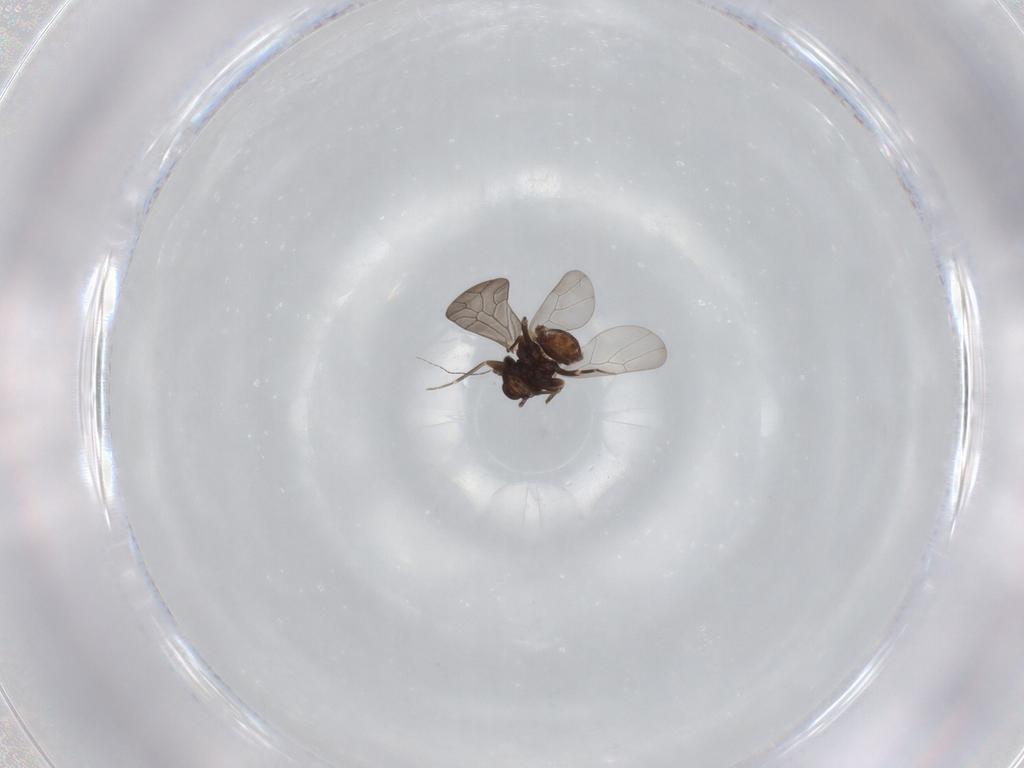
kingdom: Animalia
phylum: Arthropoda
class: Insecta
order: Psocodea
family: Lepidopsocidae
